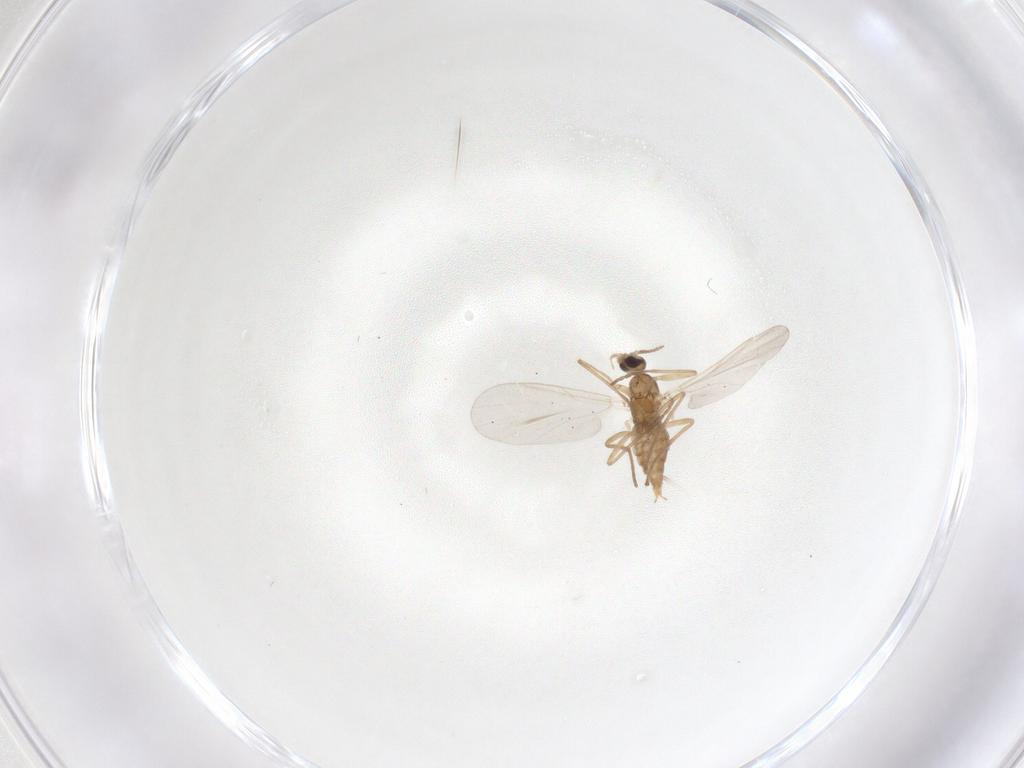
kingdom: Animalia
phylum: Arthropoda
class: Insecta
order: Diptera
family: Cecidomyiidae
